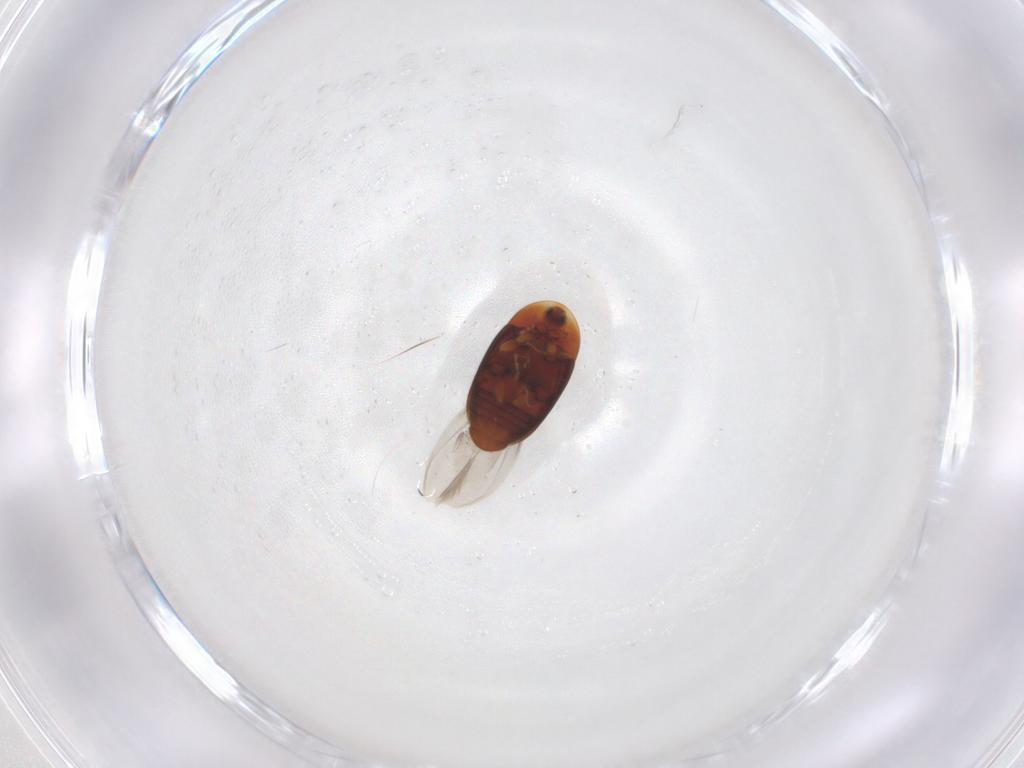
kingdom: Animalia
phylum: Arthropoda
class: Insecta
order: Coleoptera
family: Corylophidae
